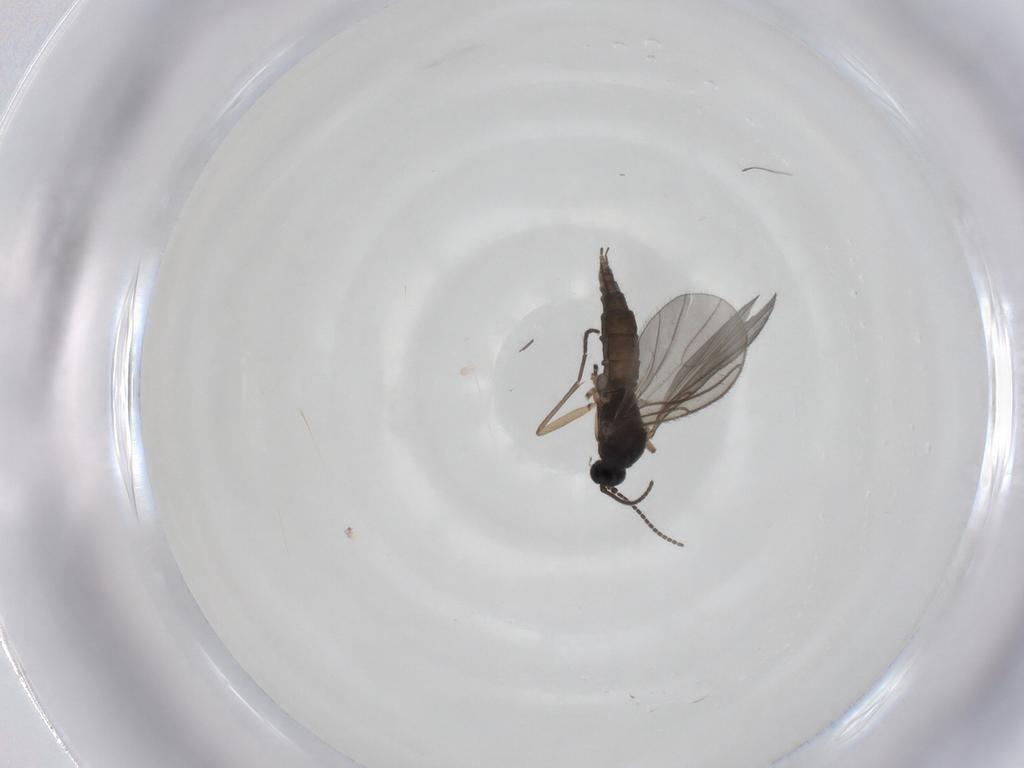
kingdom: Animalia
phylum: Arthropoda
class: Insecta
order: Diptera
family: Sciaridae
